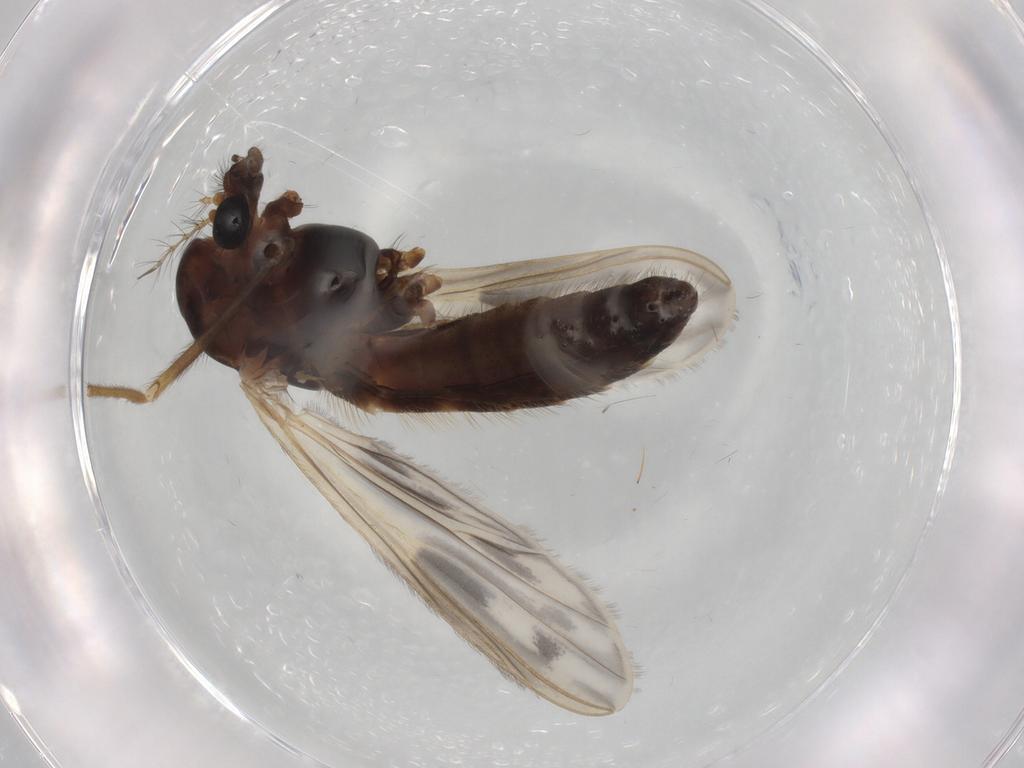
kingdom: Animalia
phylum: Arthropoda
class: Insecta
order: Diptera
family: Chironomidae
